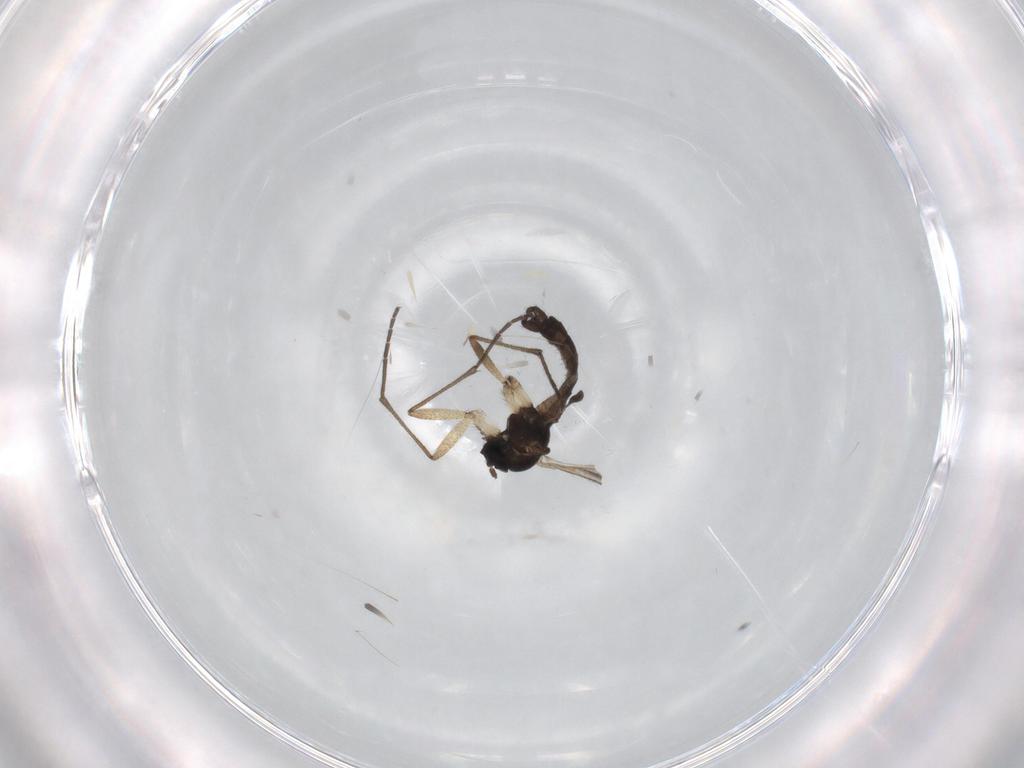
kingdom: Animalia
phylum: Arthropoda
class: Insecta
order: Diptera
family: Sciaridae
